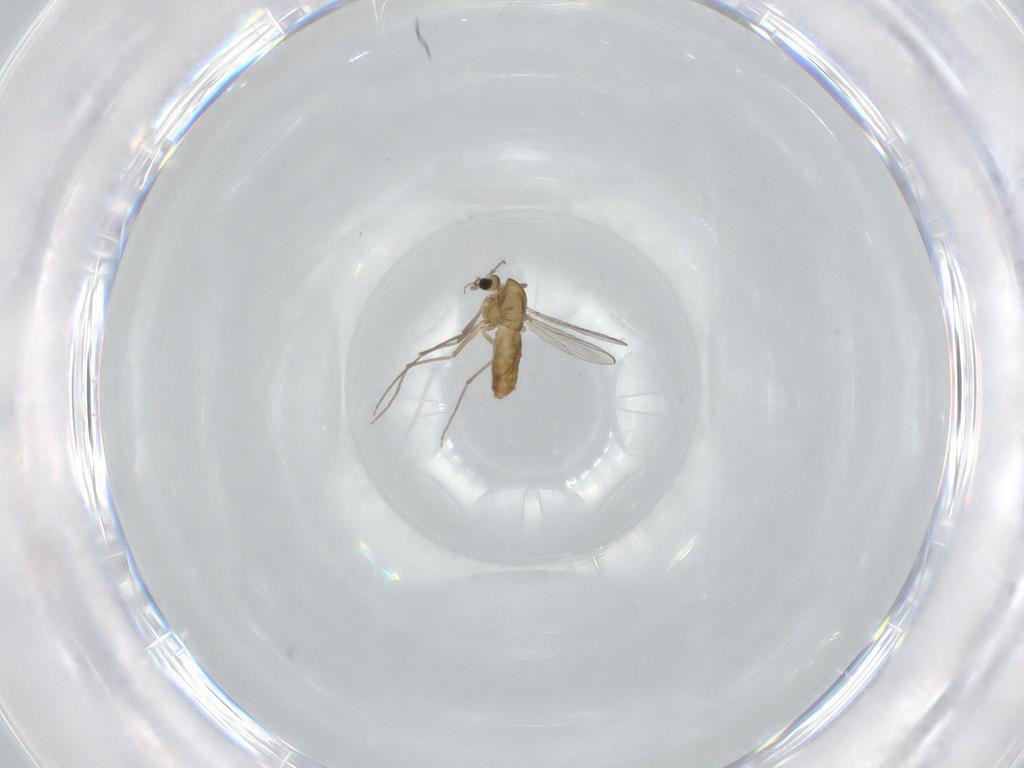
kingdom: Animalia
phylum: Arthropoda
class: Insecta
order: Diptera
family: Chironomidae
